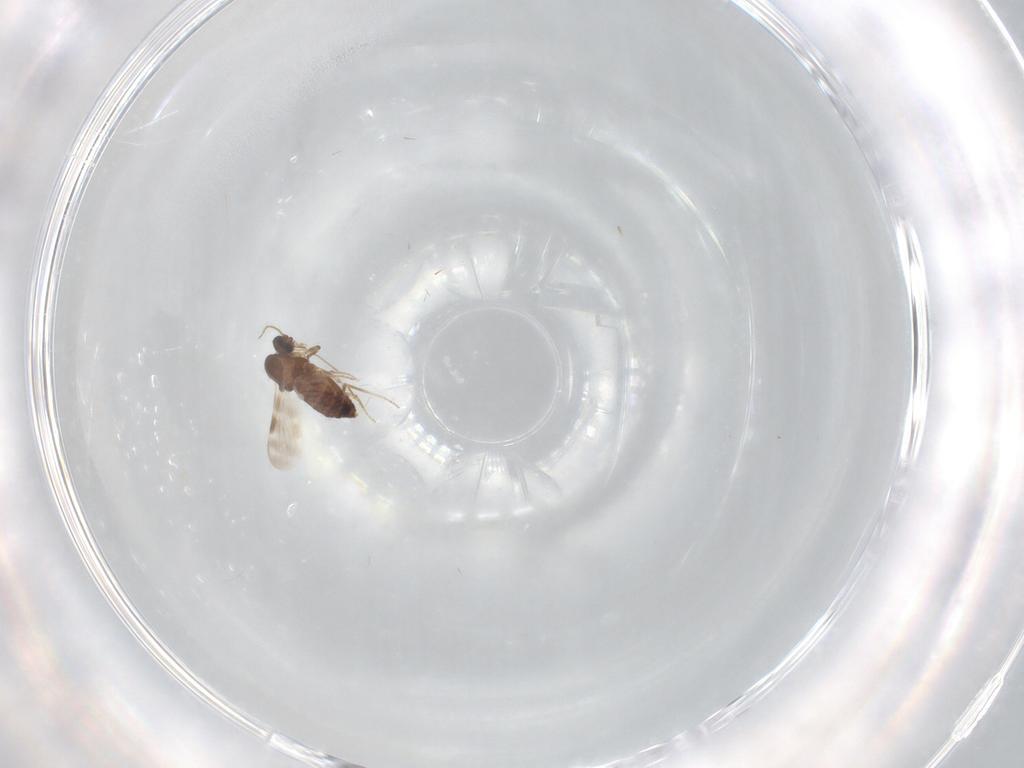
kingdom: Animalia
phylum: Arthropoda
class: Insecta
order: Diptera
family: Ceratopogonidae
